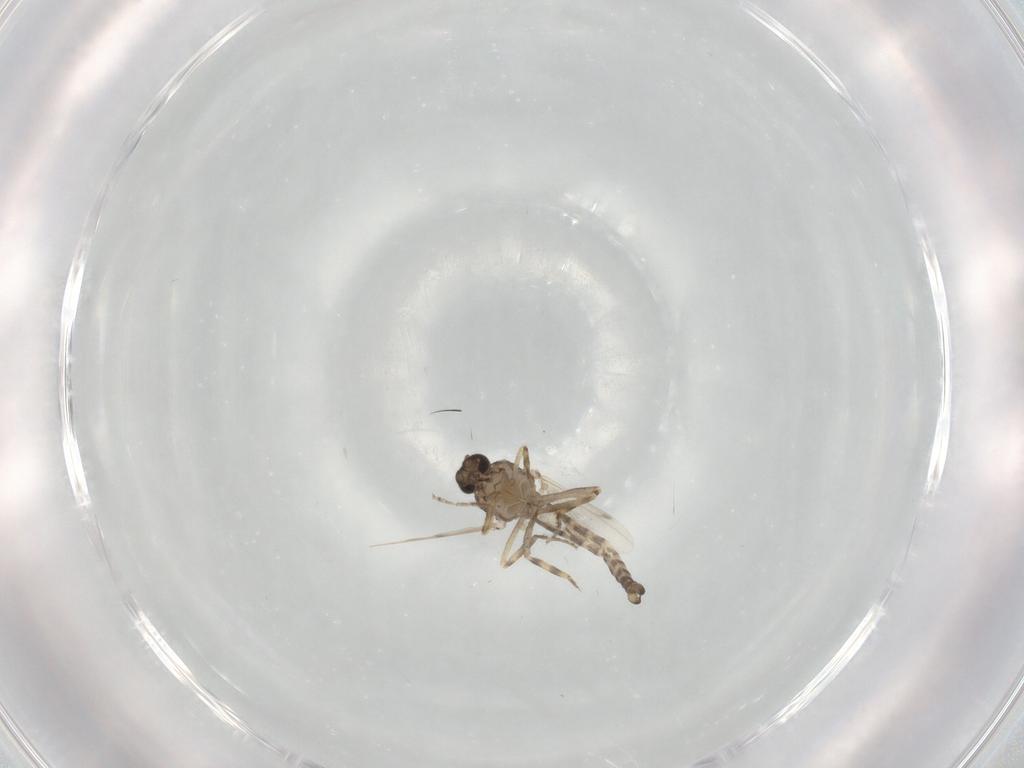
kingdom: Animalia
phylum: Arthropoda
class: Insecta
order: Diptera
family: Ceratopogonidae
